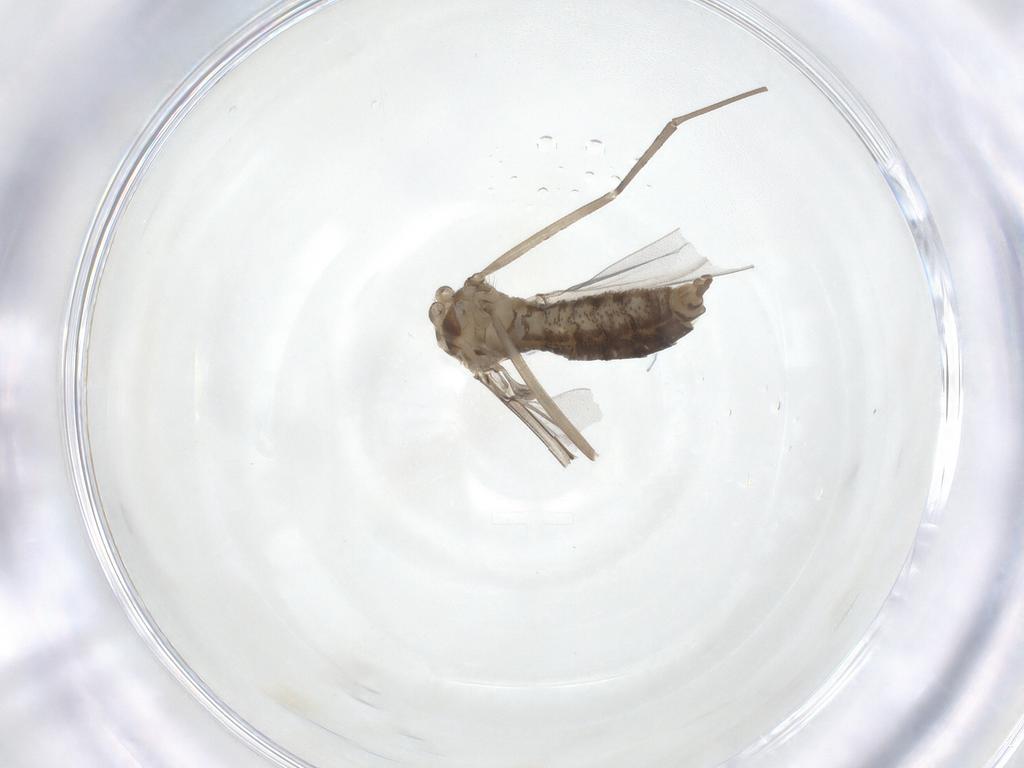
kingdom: Animalia
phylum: Arthropoda
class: Insecta
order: Diptera
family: Cecidomyiidae
